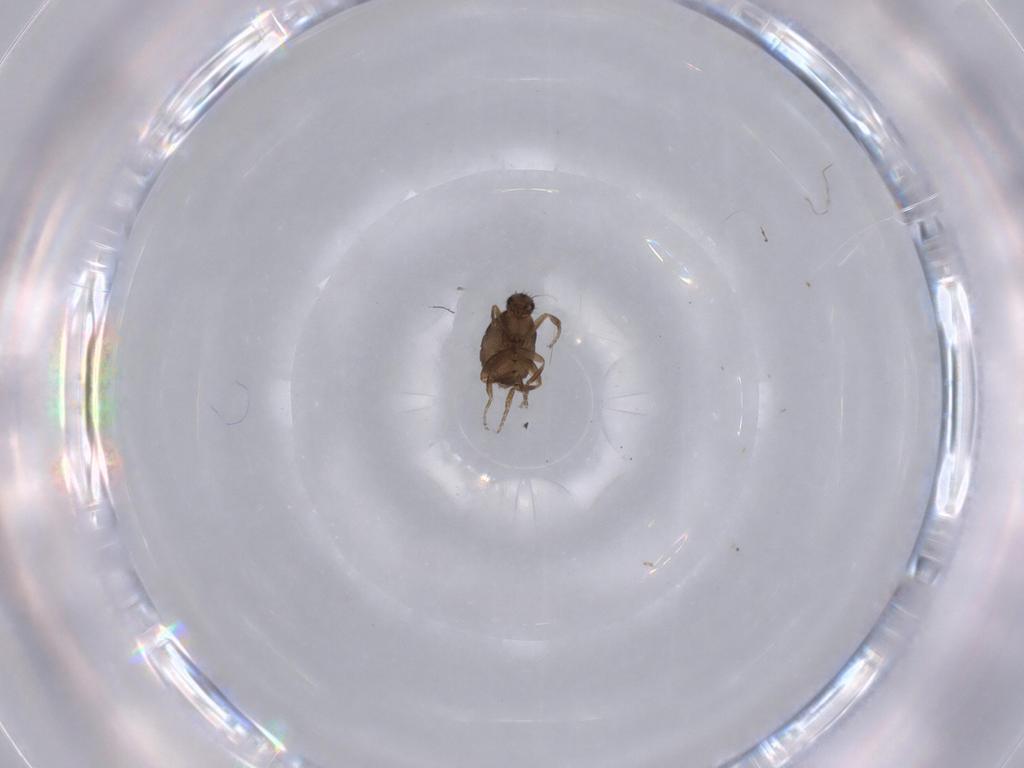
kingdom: Animalia
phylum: Arthropoda
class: Insecta
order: Diptera
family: Phoridae
